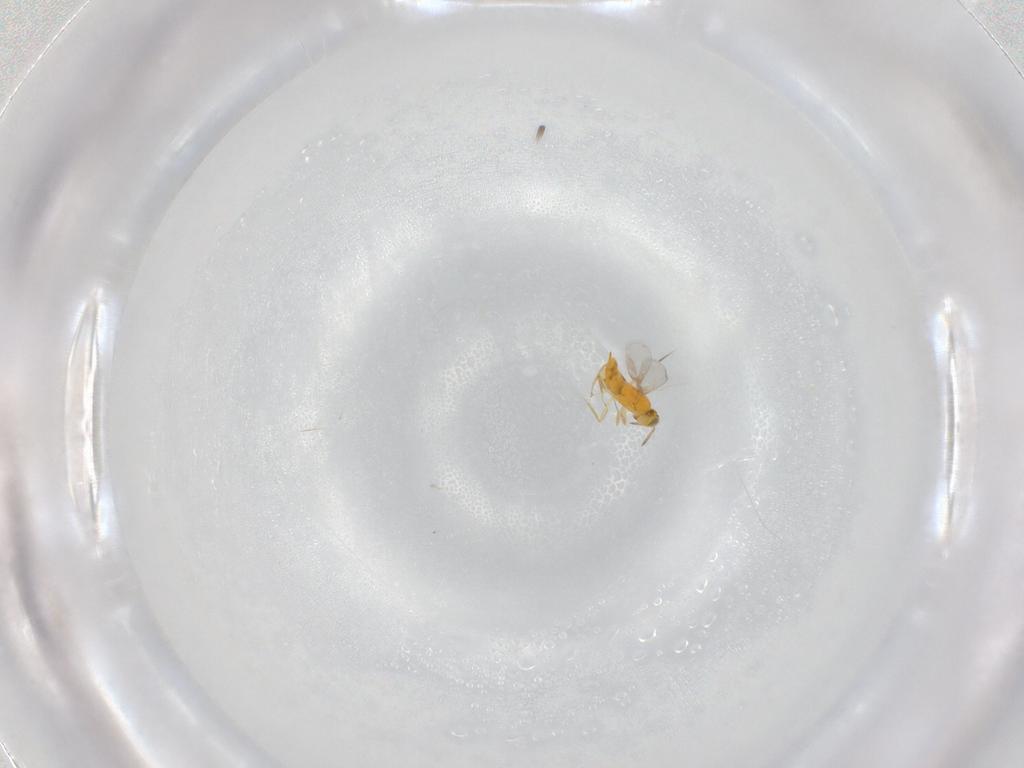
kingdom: Animalia
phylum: Arthropoda
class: Insecta
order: Hymenoptera
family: Aphelinidae
